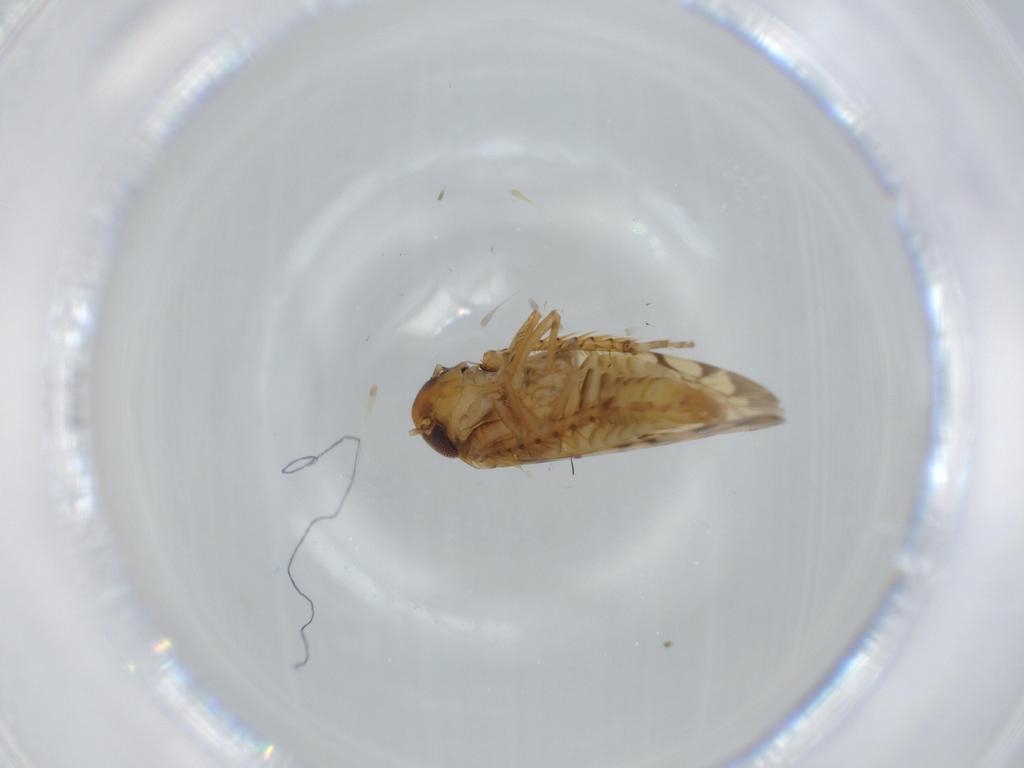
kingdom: Animalia
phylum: Arthropoda
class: Insecta
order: Hemiptera
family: Cicadellidae
